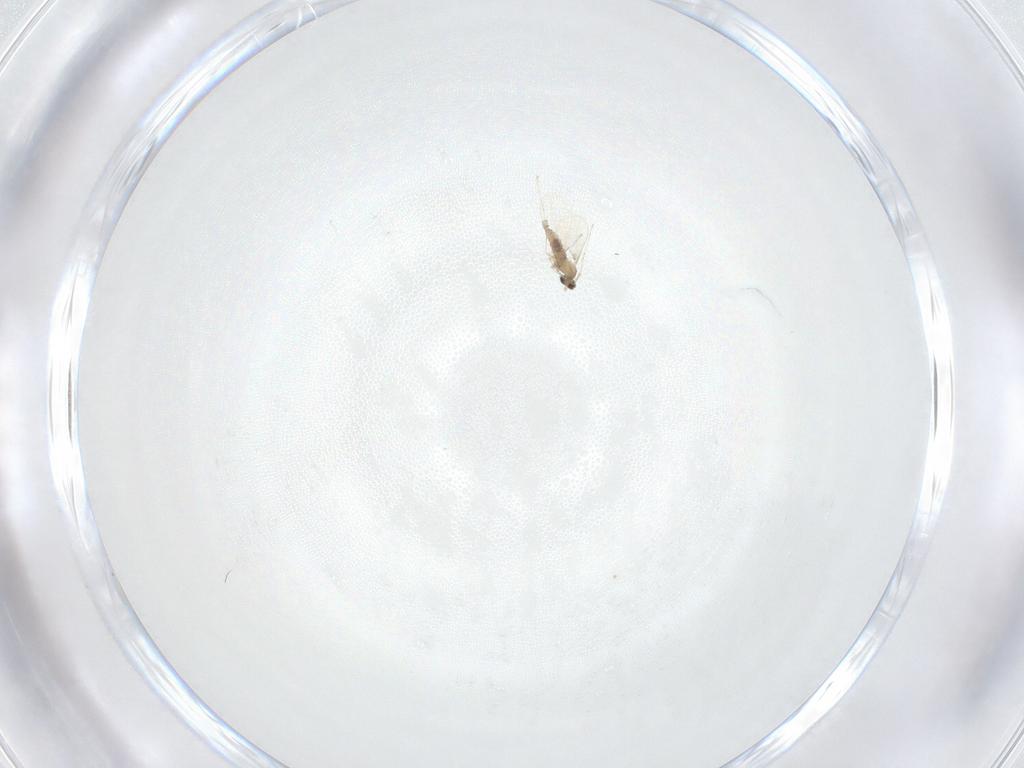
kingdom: Animalia
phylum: Arthropoda
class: Insecta
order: Diptera
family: Cecidomyiidae
